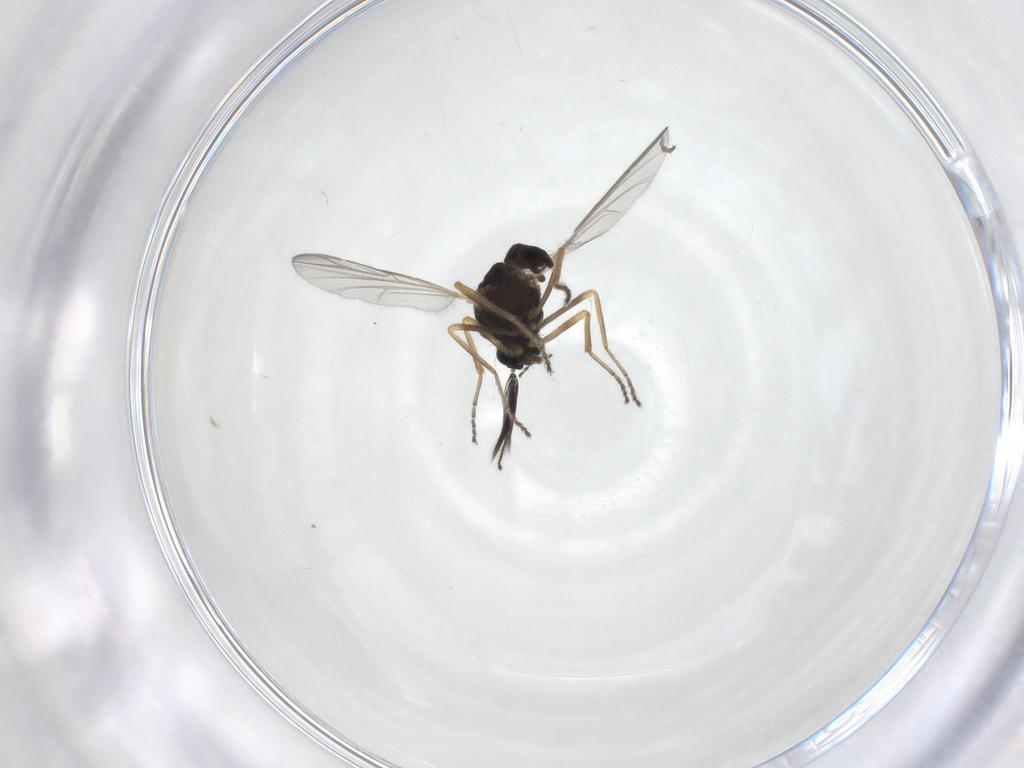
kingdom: Animalia
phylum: Arthropoda
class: Insecta
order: Diptera
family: Ceratopogonidae
